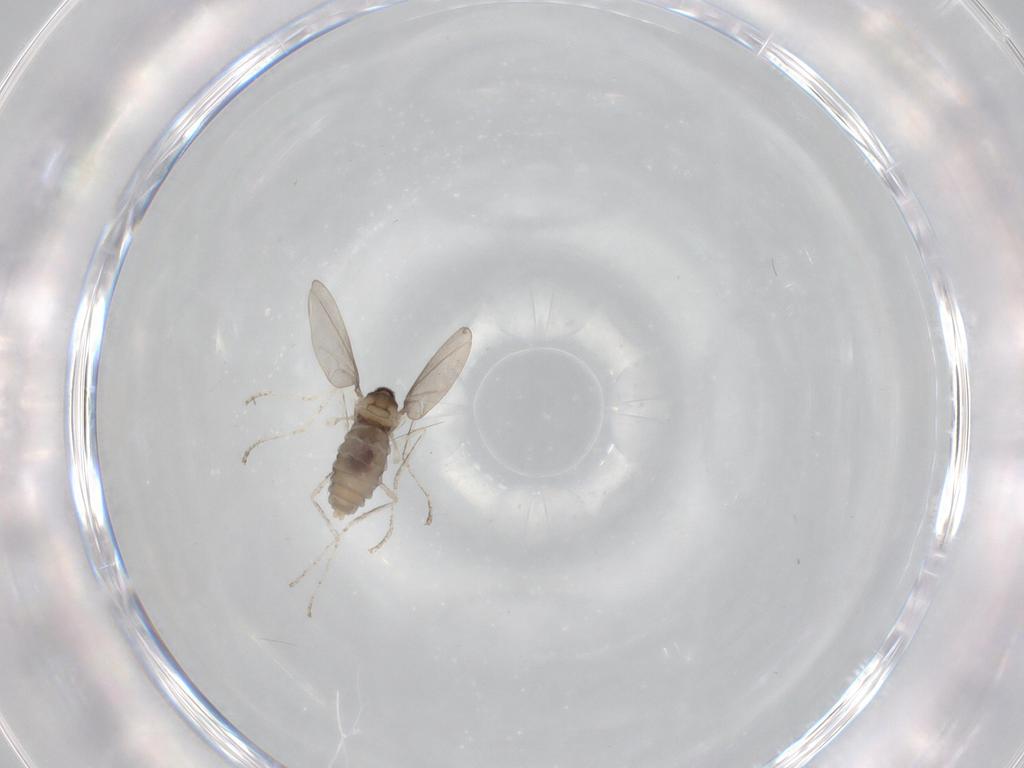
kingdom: Animalia
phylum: Arthropoda
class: Insecta
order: Diptera
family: Cecidomyiidae
